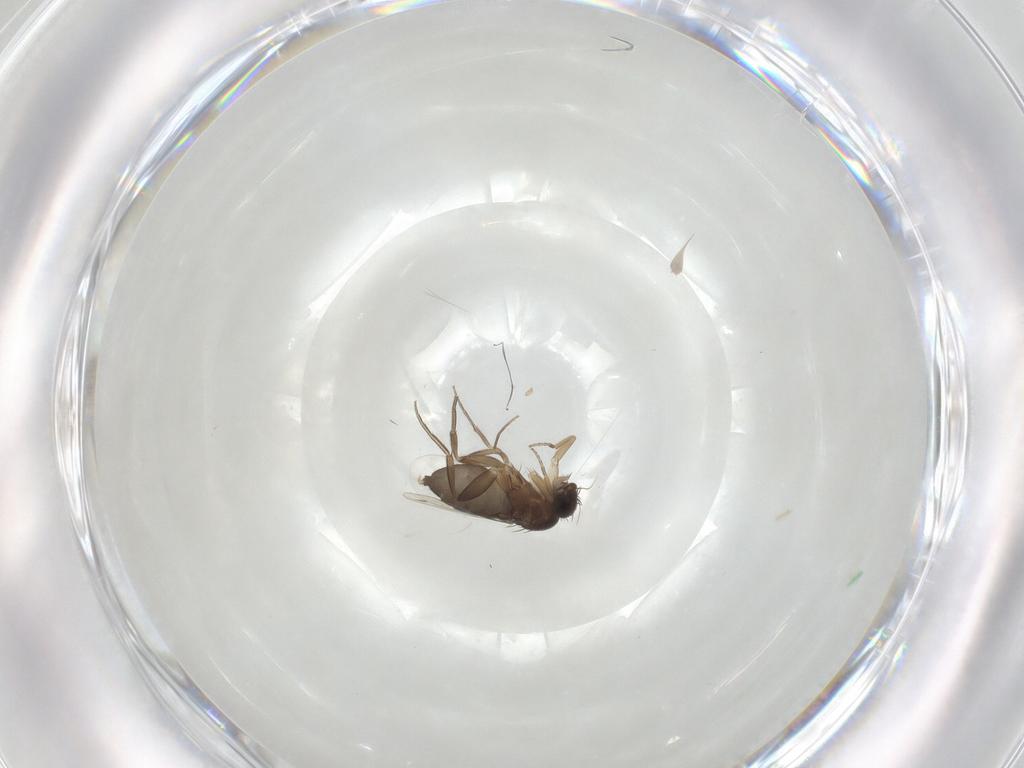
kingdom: Animalia
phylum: Arthropoda
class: Insecta
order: Diptera
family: Phoridae
